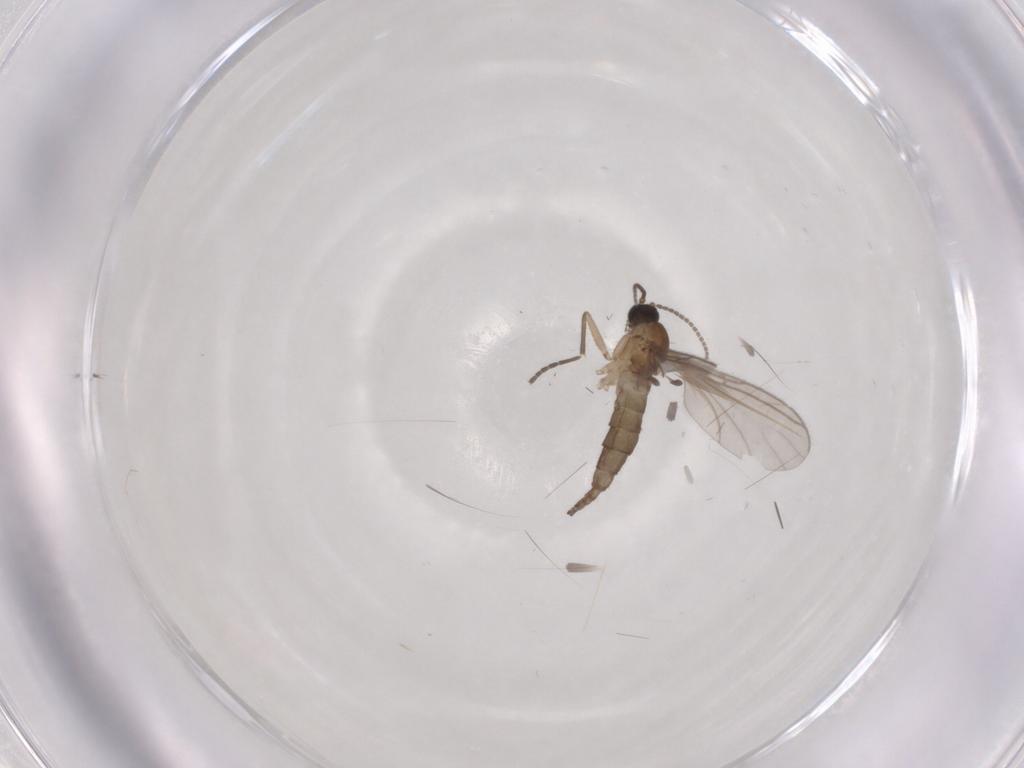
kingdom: Animalia
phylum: Arthropoda
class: Insecta
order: Diptera
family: Sciaridae
